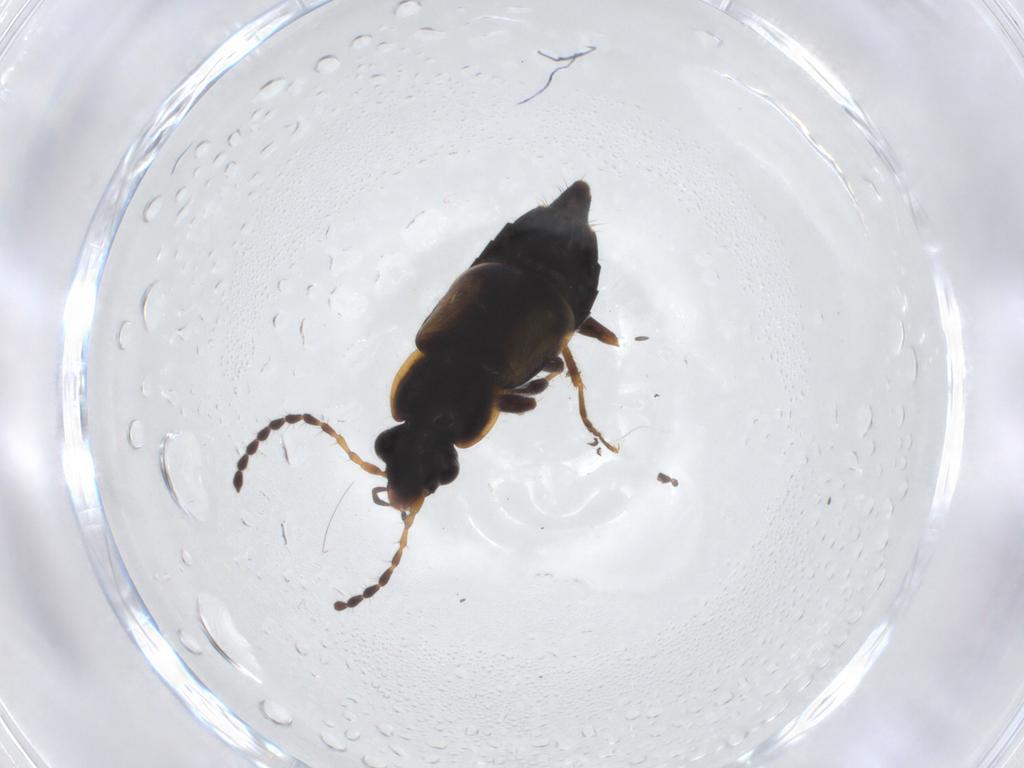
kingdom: Animalia
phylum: Arthropoda
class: Insecta
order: Coleoptera
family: Staphylinidae
